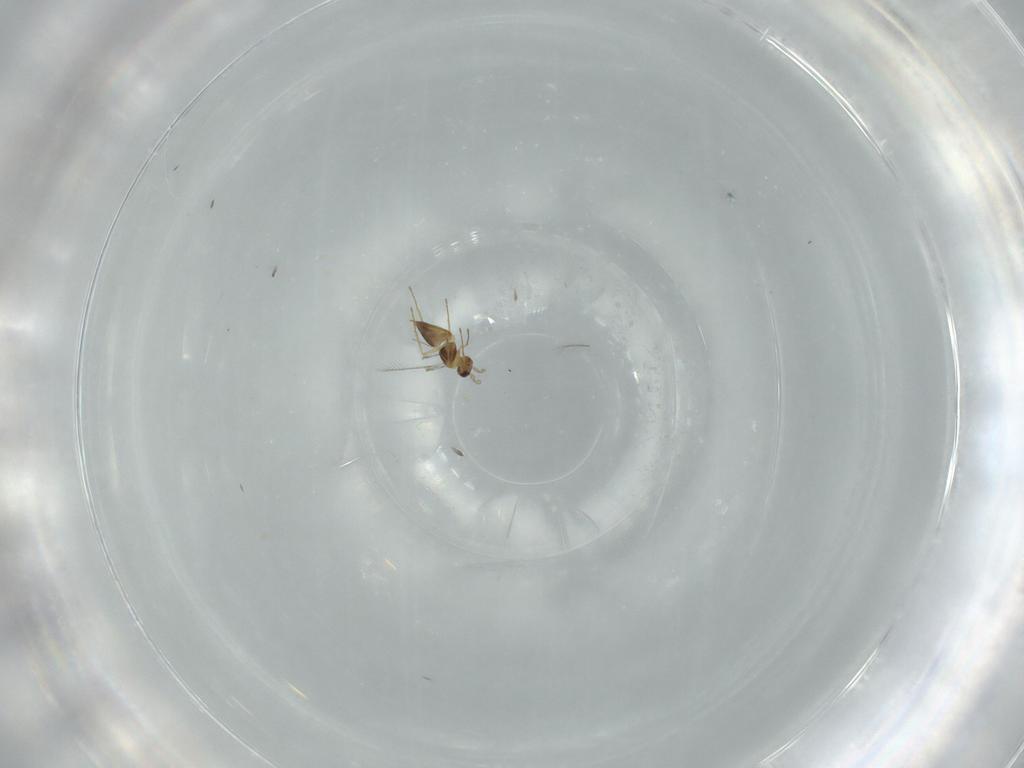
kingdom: Animalia
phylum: Arthropoda
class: Insecta
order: Hymenoptera
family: Mymaridae
